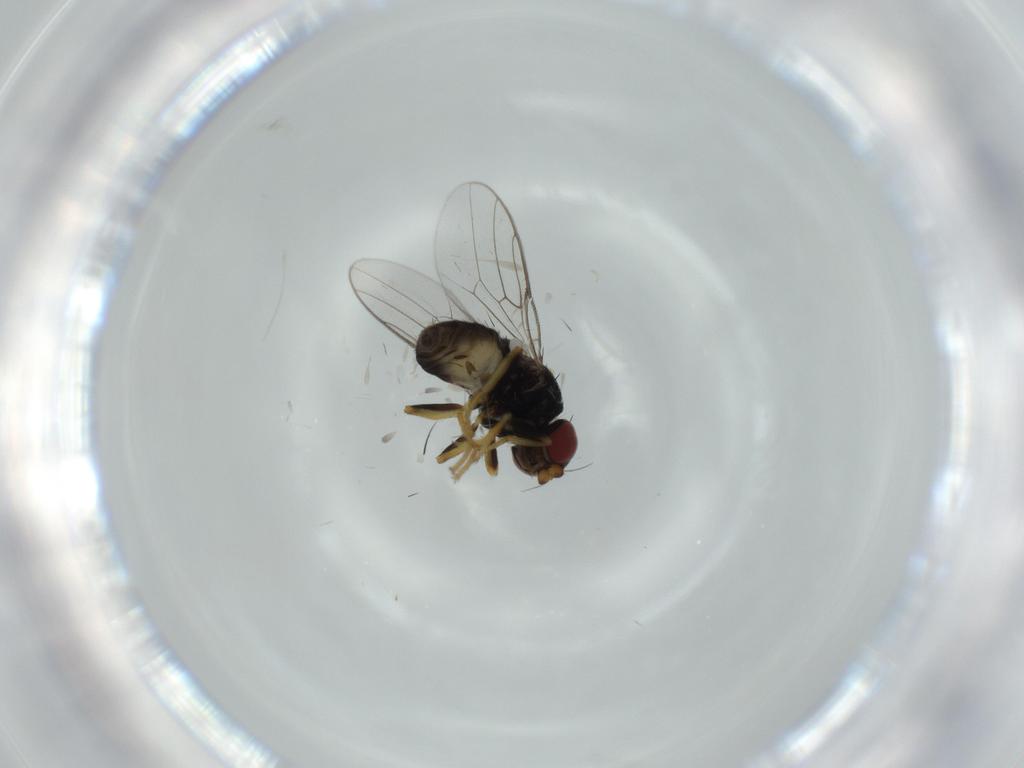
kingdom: Animalia
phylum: Arthropoda
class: Insecta
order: Diptera
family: Chloropidae
